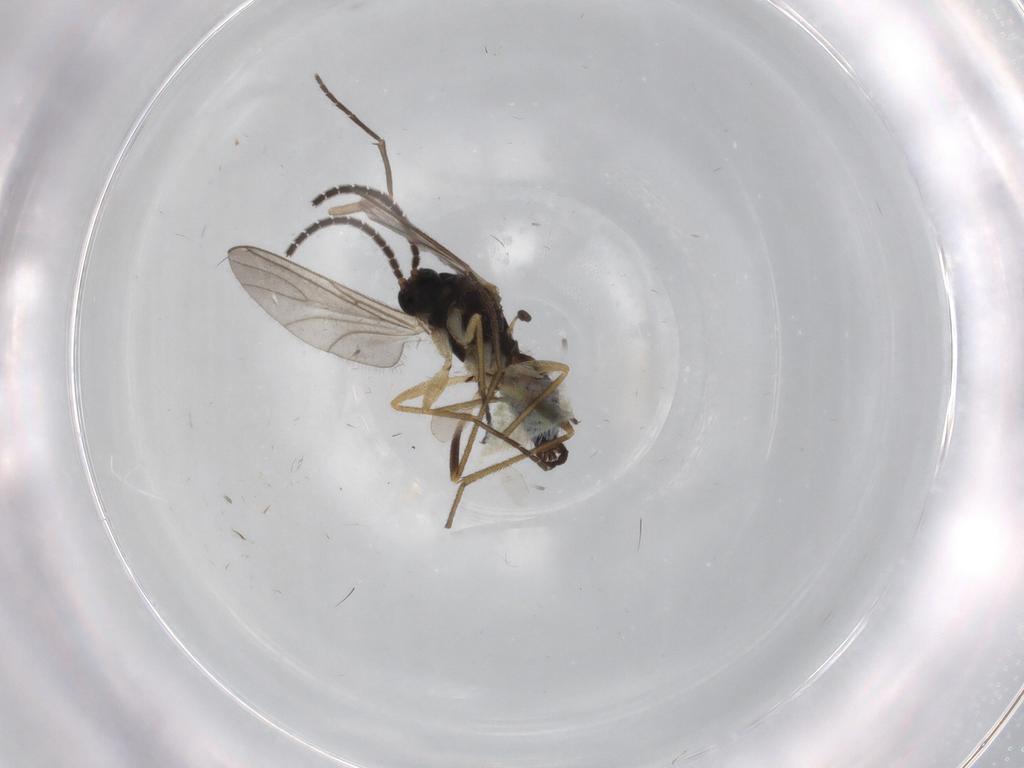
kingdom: Animalia
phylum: Arthropoda
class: Insecta
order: Diptera
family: Sciaridae
